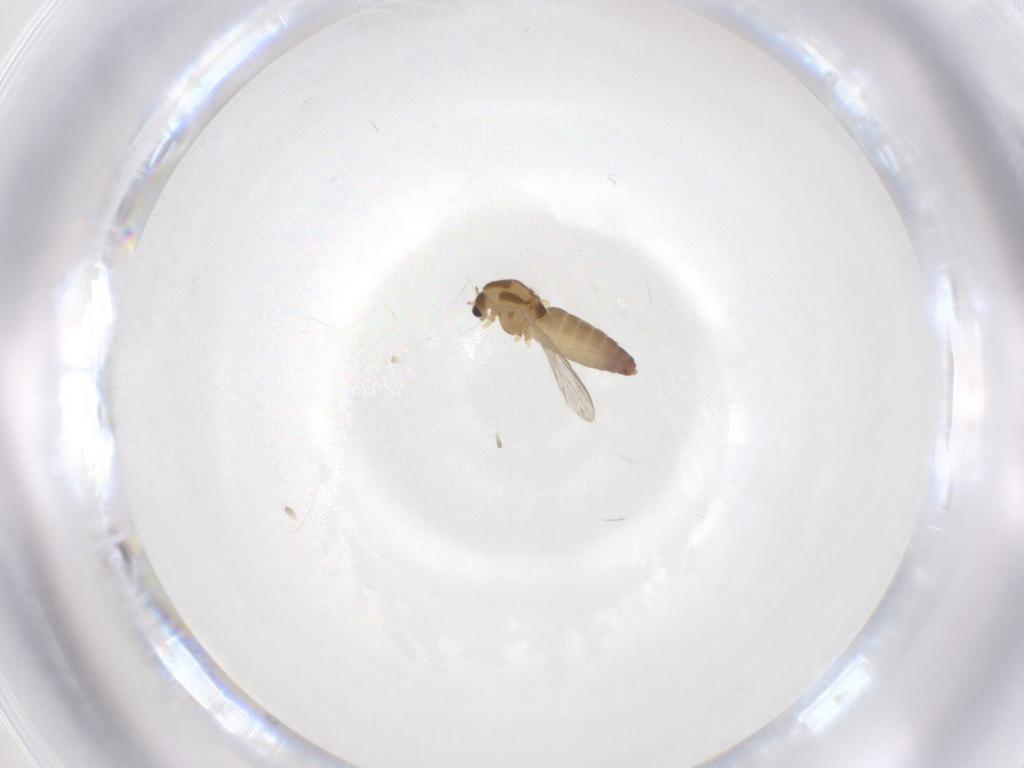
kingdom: Animalia
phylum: Arthropoda
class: Insecta
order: Diptera
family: Chironomidae
